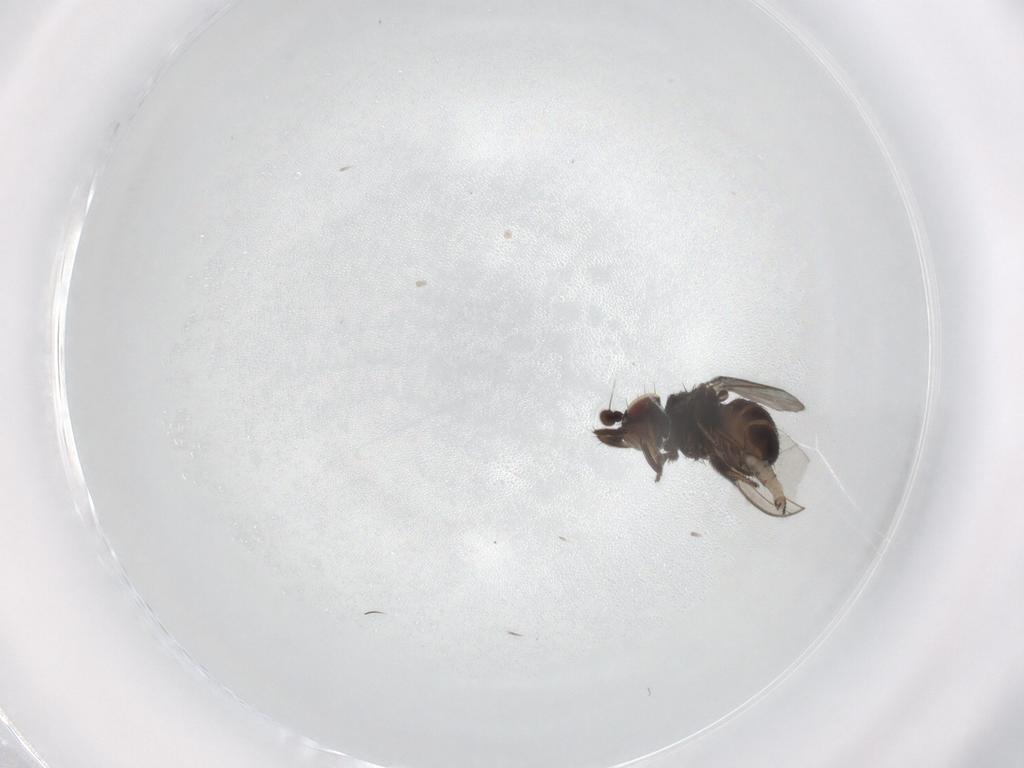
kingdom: Animalia
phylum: Arthropoda
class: Insecta
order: Diptera
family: Milichiidae
